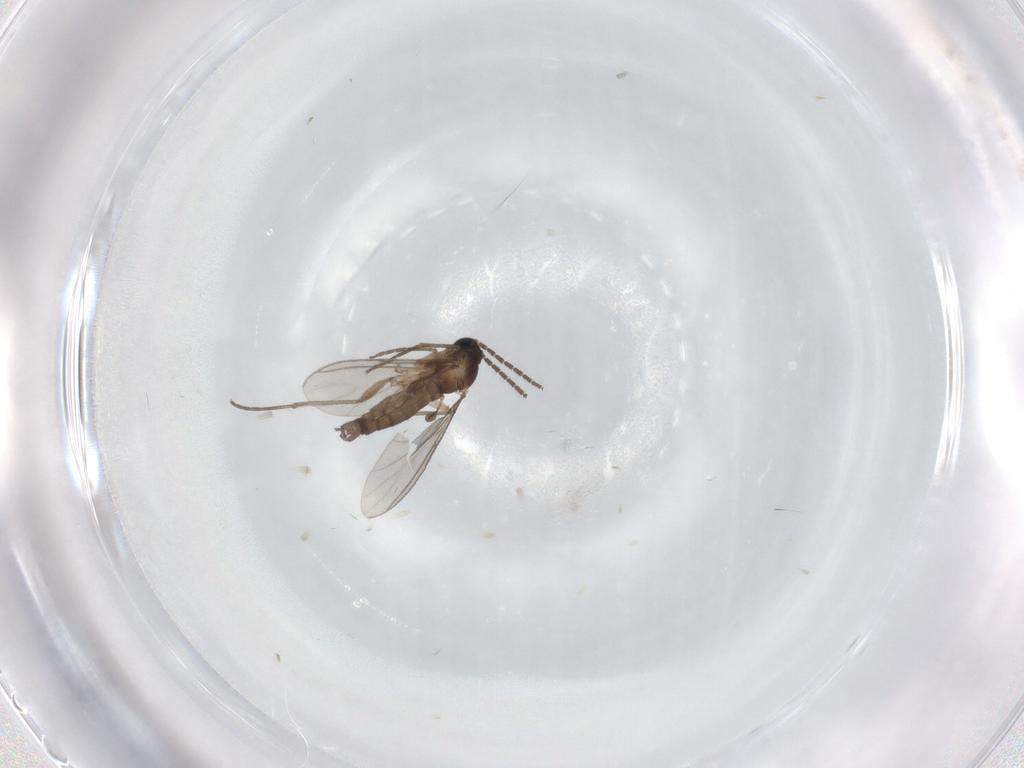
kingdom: Animalia
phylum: Arthropoda
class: Insecta
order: Diptera
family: Sciaridae
